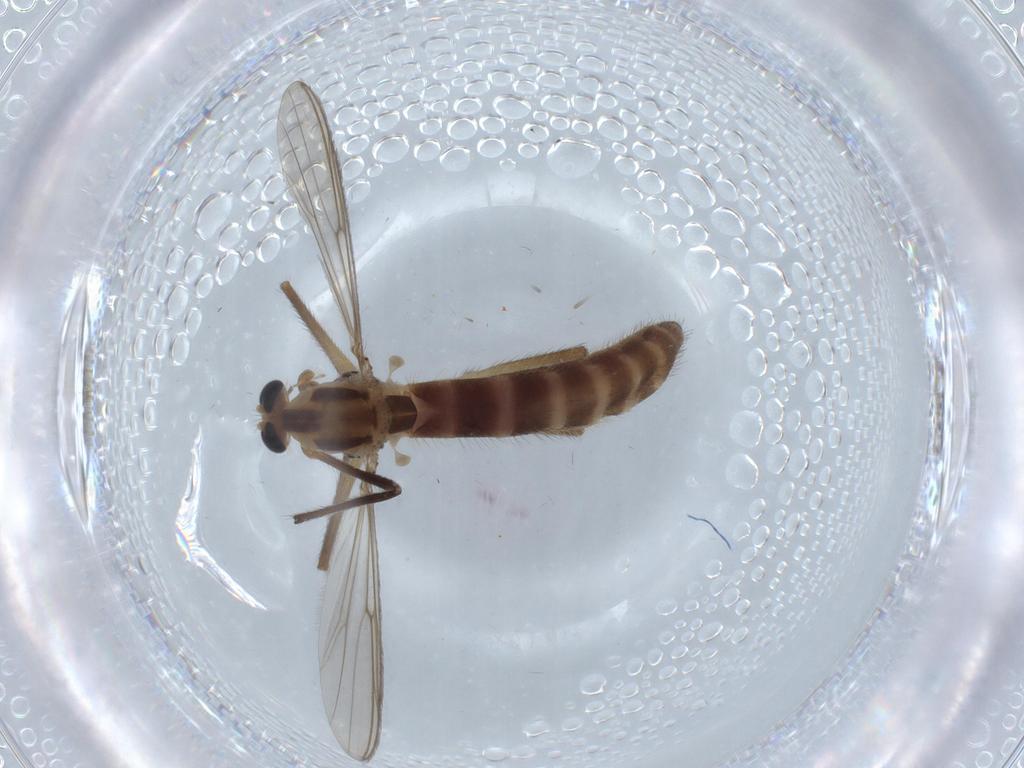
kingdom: Animalia
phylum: Arthropoda
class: Insecta
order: Diptera
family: Chironomidae
